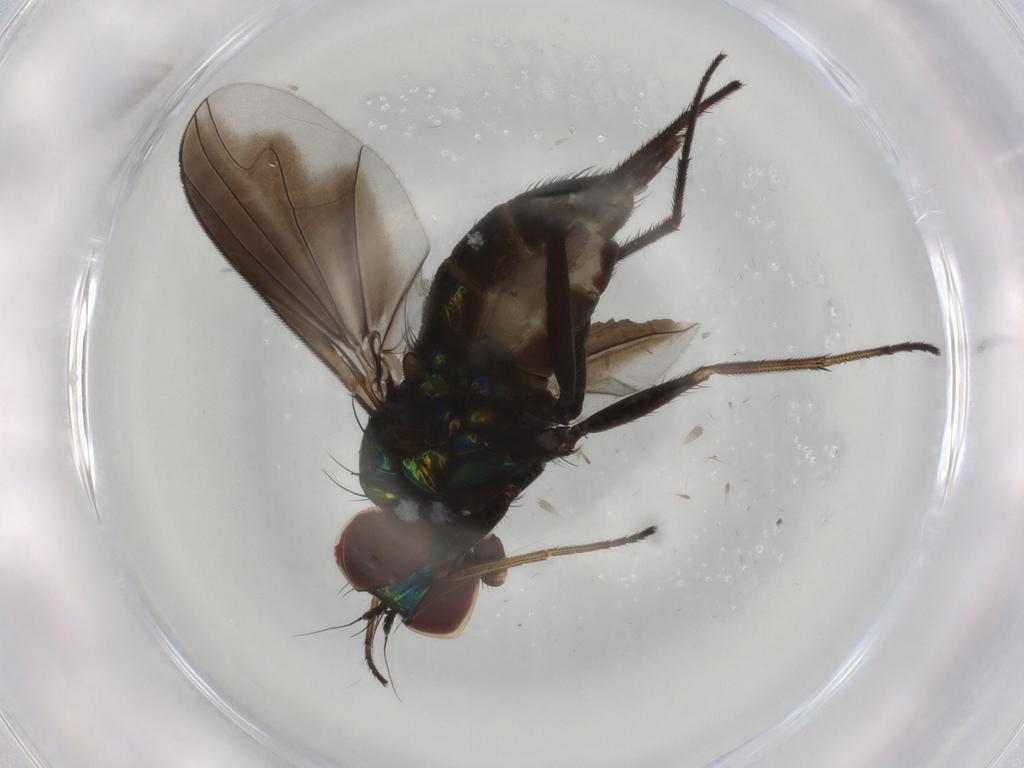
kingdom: Animalia
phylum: Arthropoda
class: Insecta
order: Diptera
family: Dolichopodidae
